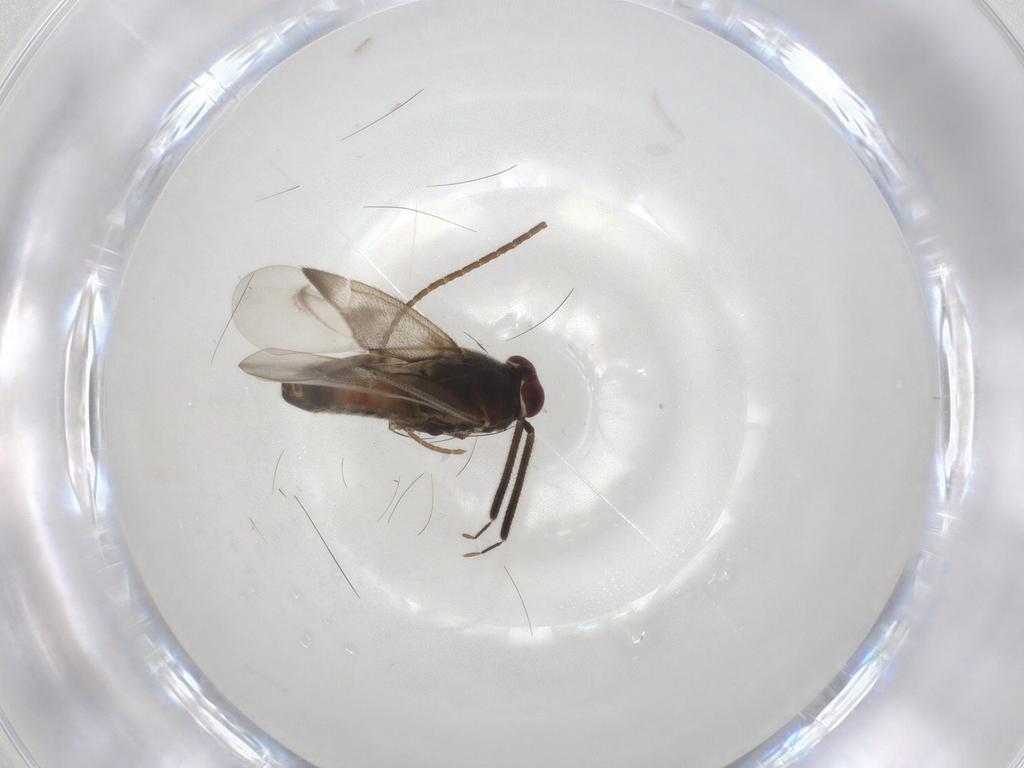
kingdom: Animalia
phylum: Arthropoda
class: Insecta
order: Hemiptera
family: Miridae
